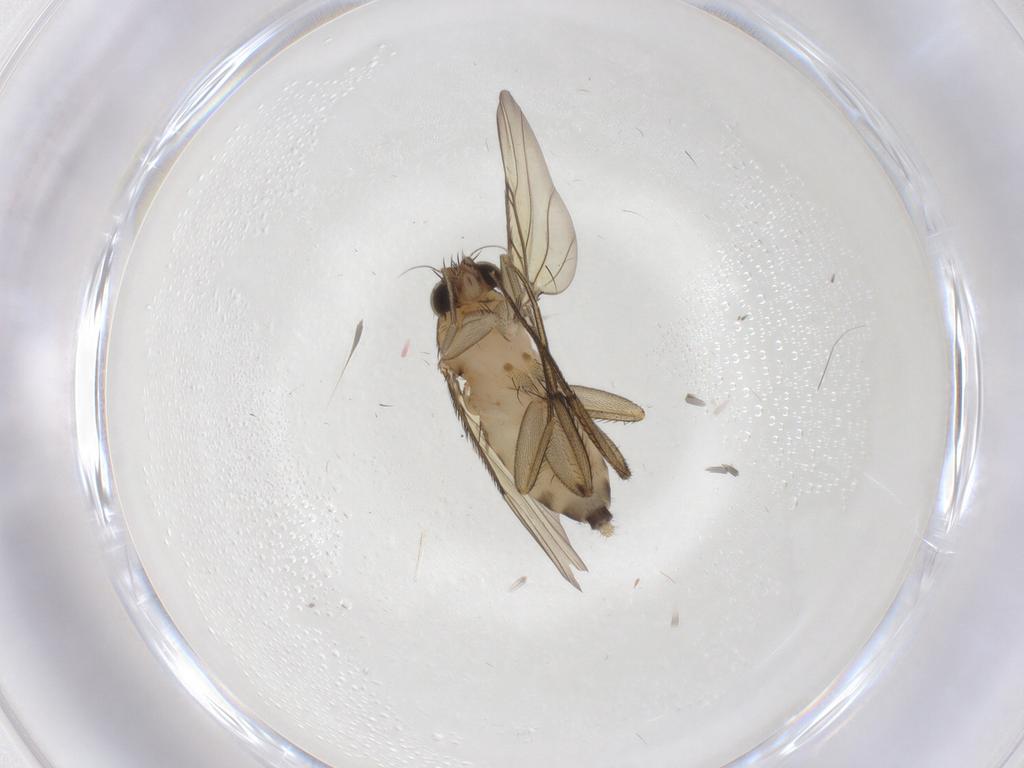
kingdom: Animalia
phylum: Arthropoda
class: Insecta
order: Diptera
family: Phoridae
